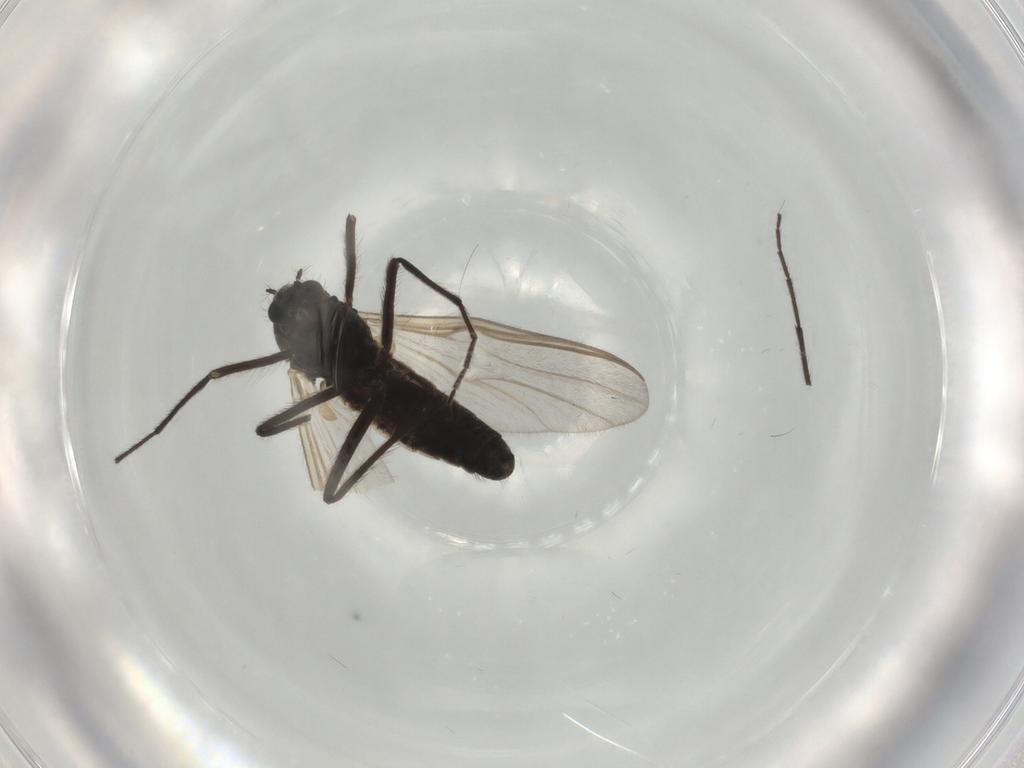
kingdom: Animalia
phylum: Arthropoda
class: Insecta
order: Diptera
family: Chironomidae
